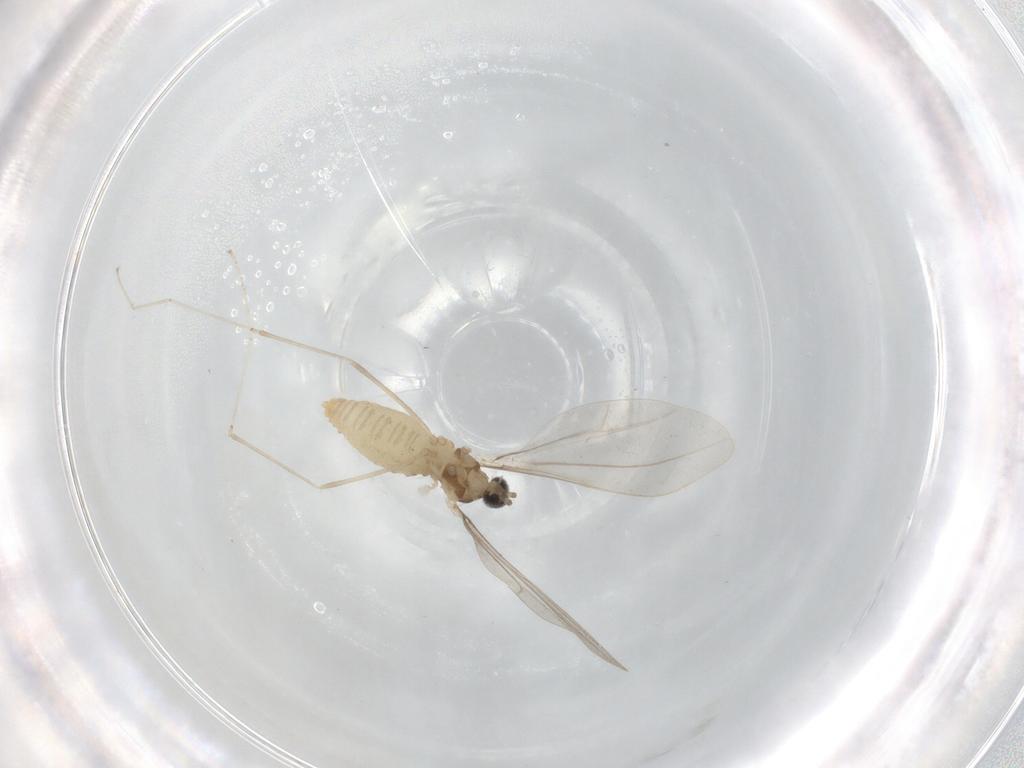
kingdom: Animalia
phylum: Arthropoda
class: Insecta
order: Diptera
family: Cecidomyiidae
